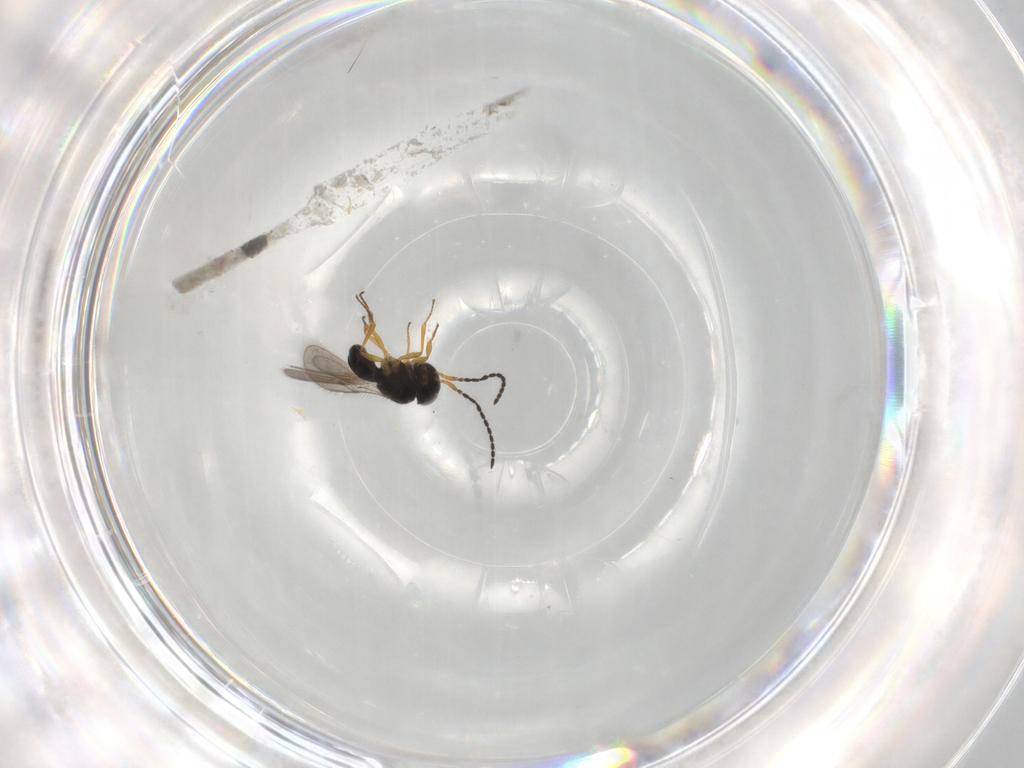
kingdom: Animalia
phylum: Arthropoda
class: Insecta
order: Hymenoptera
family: Scelionidae
